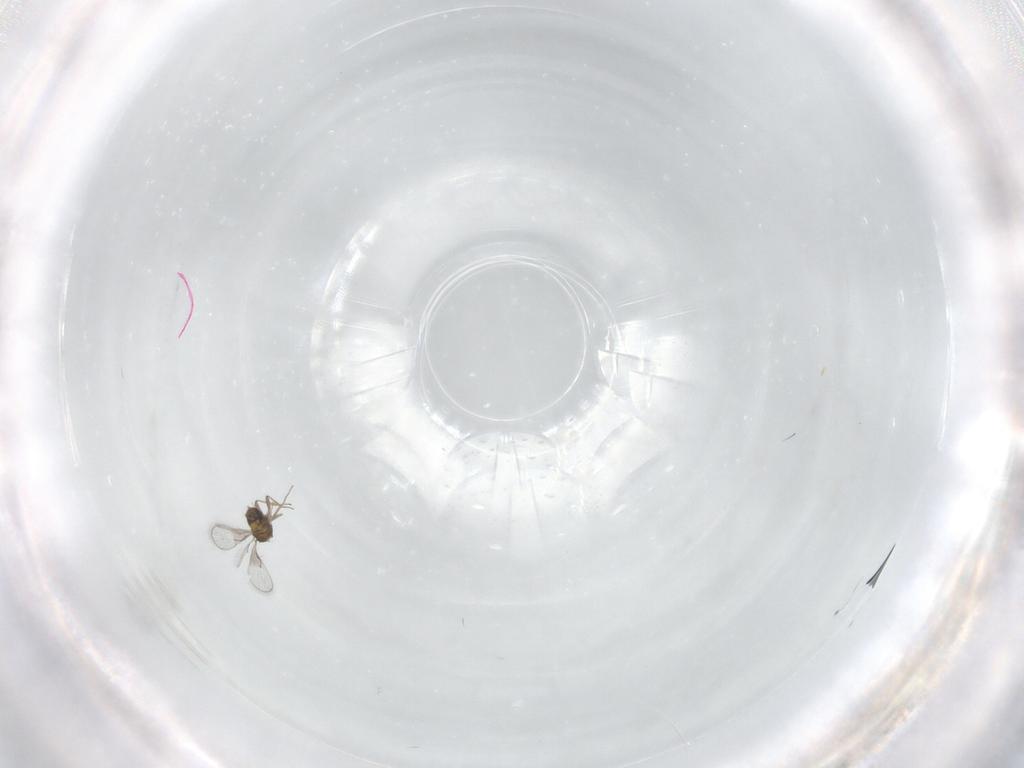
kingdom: Animalia
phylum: Arthropoda
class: Insecta
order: Hymenoptera
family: Trichogrammatidae
